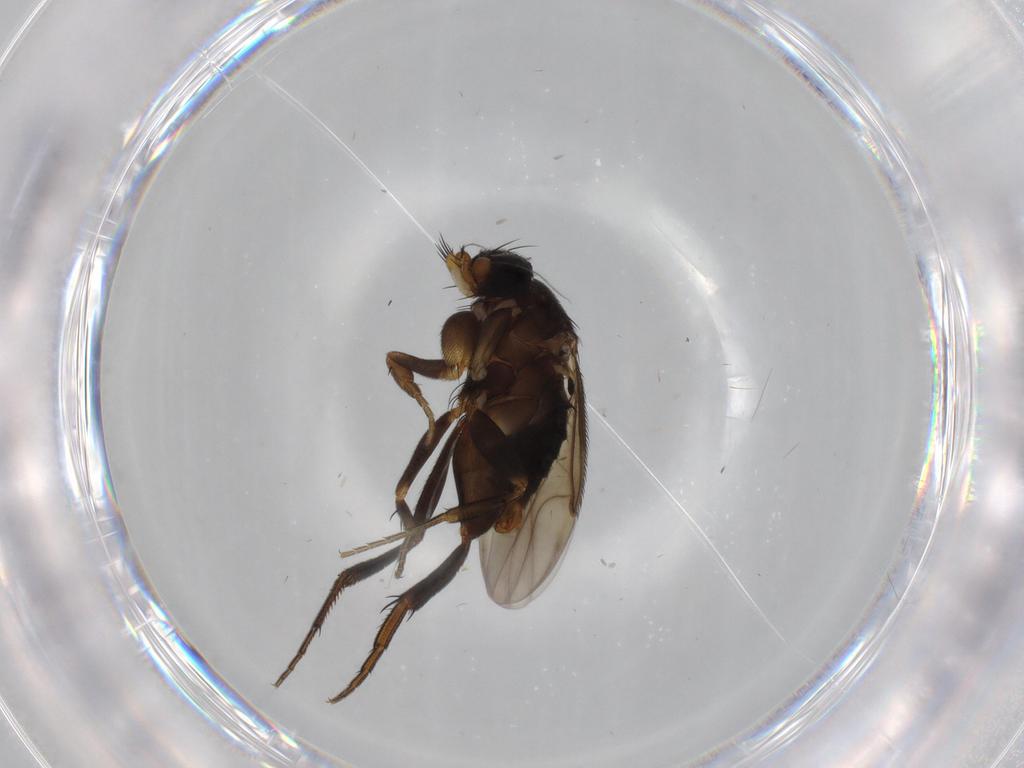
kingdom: Animalia
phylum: Arthropoda
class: Insecta
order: Diptera
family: Phoridae
